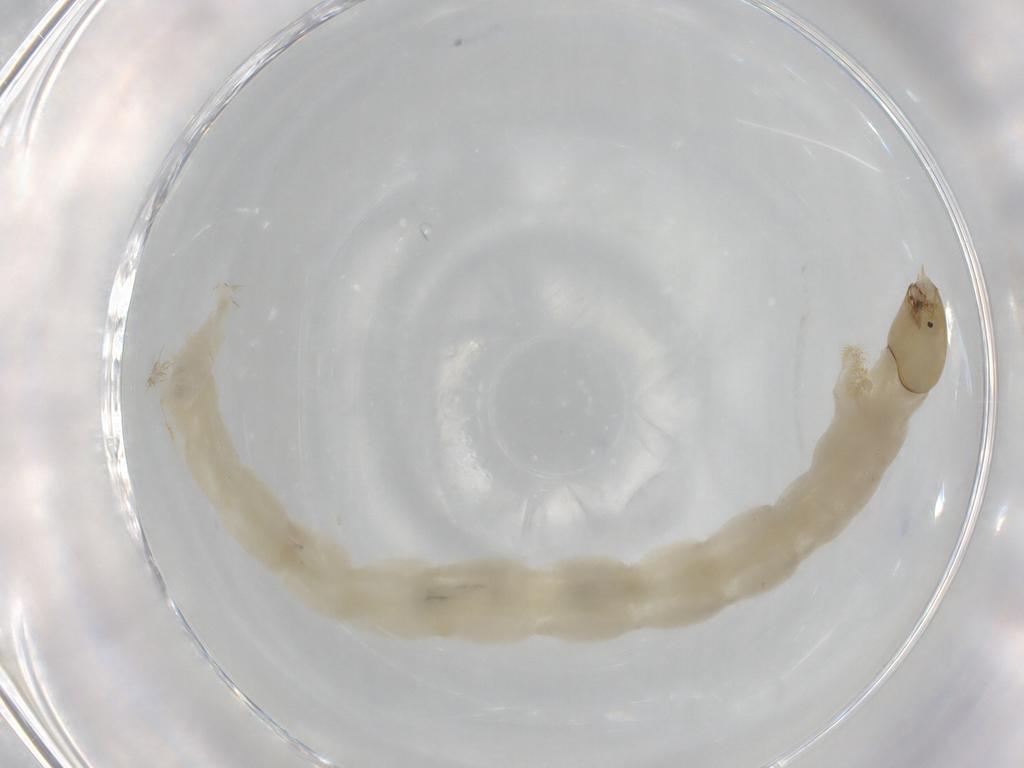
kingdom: Animalia
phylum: Arthropoda
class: Insecta
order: Diptera
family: Chironomidae
